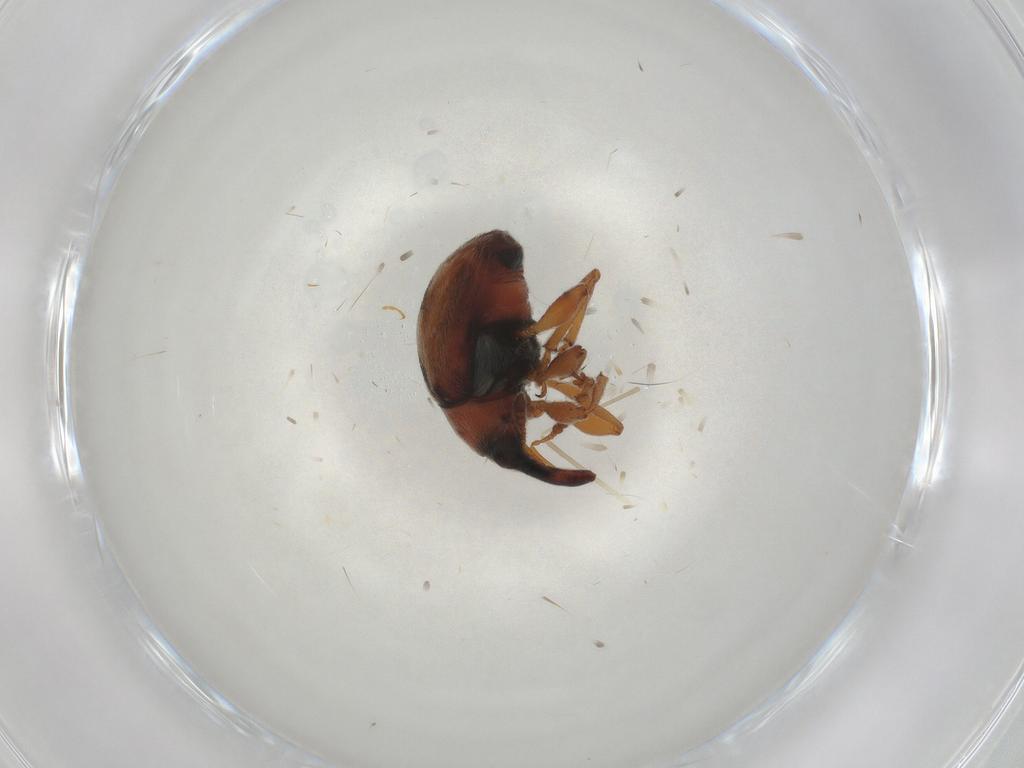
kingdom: Animalia
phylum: Arthropoda
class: Insecta
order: Coleoptera
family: Brentidae
